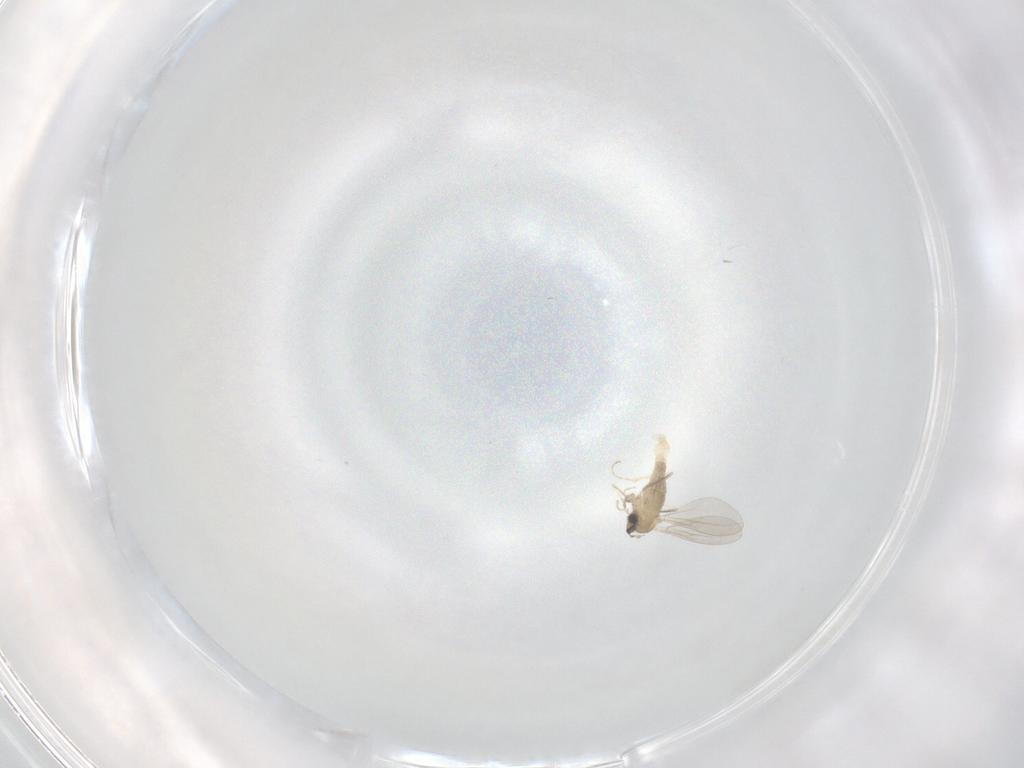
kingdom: Animalia
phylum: Arthropoda
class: Insecta
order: Diptera
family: Cecidomyiidae
